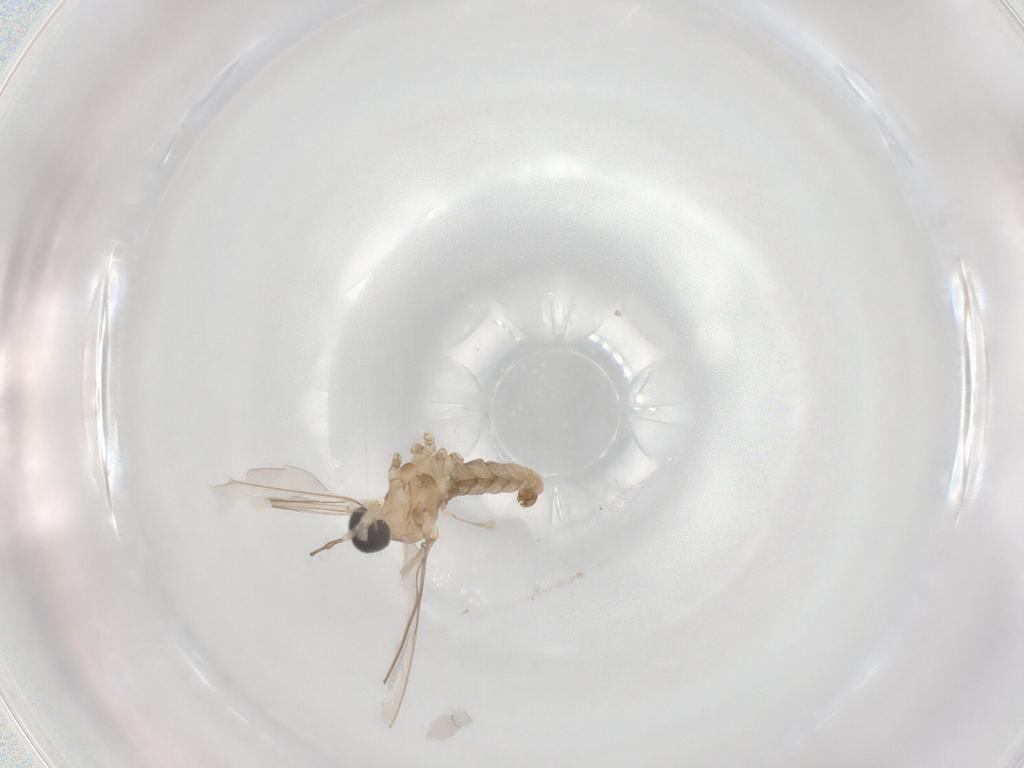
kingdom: Animalia
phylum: Arthropoda
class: Insecta
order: Diptera
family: Cecidomyiidae
